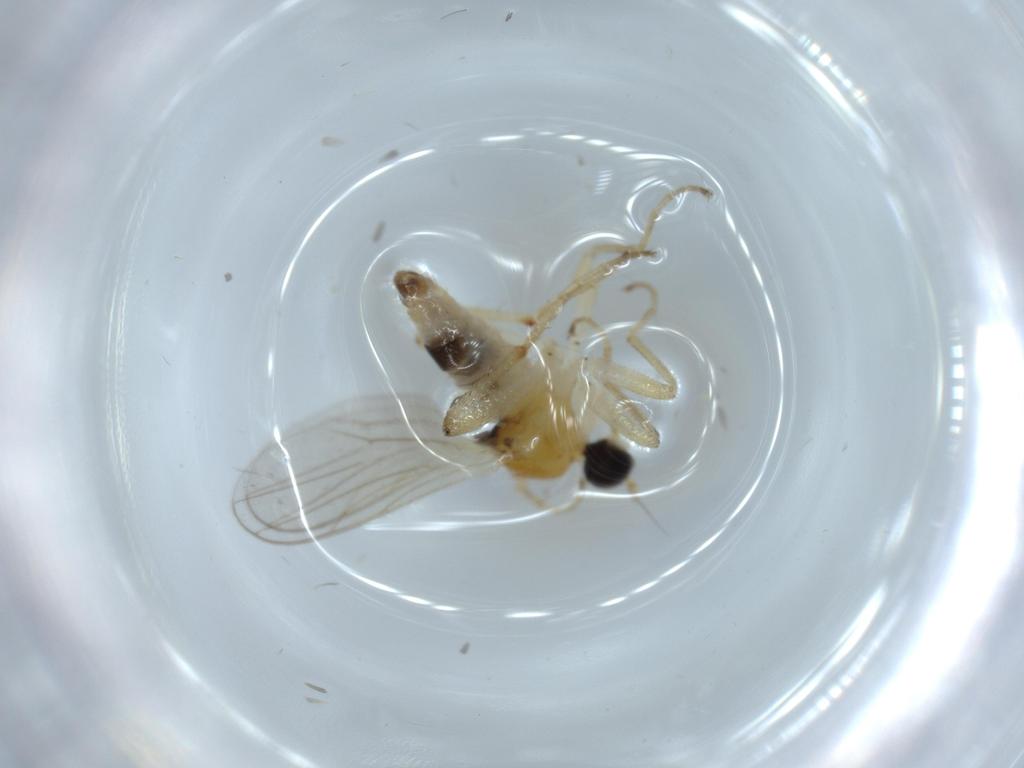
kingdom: Animalia
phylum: Arthropoda
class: Insecta
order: Diptera
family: Hybotidae
